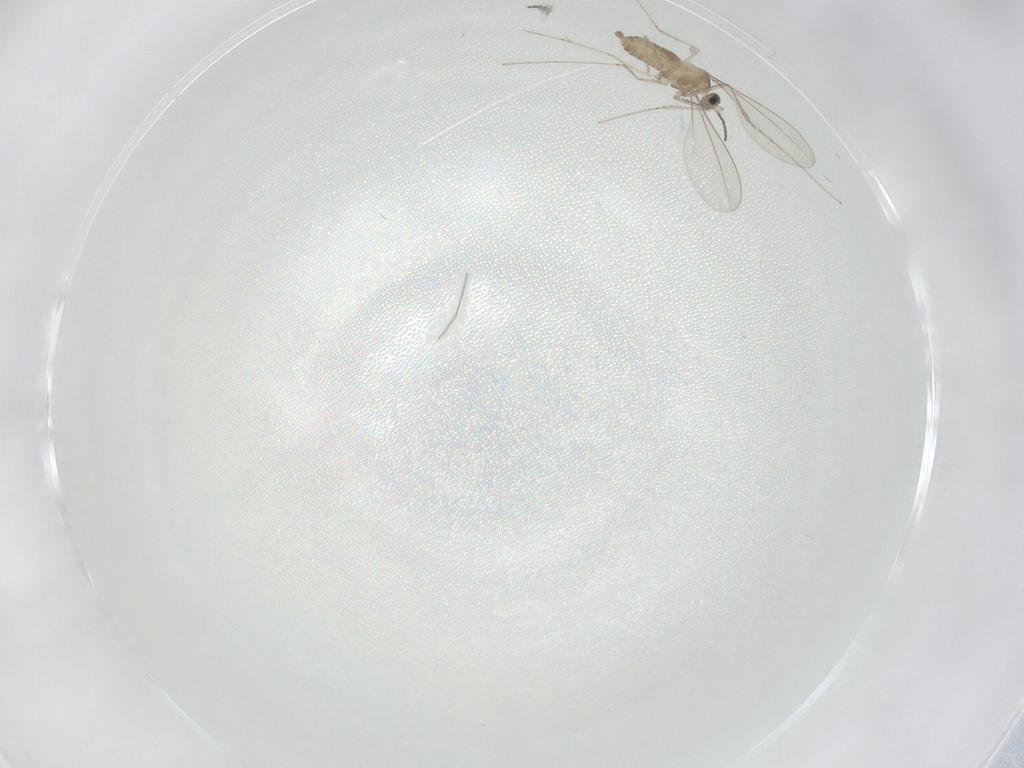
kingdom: Animalia
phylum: Arthropoda
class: Insecta
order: Diptera
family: Cecidomyiidae
